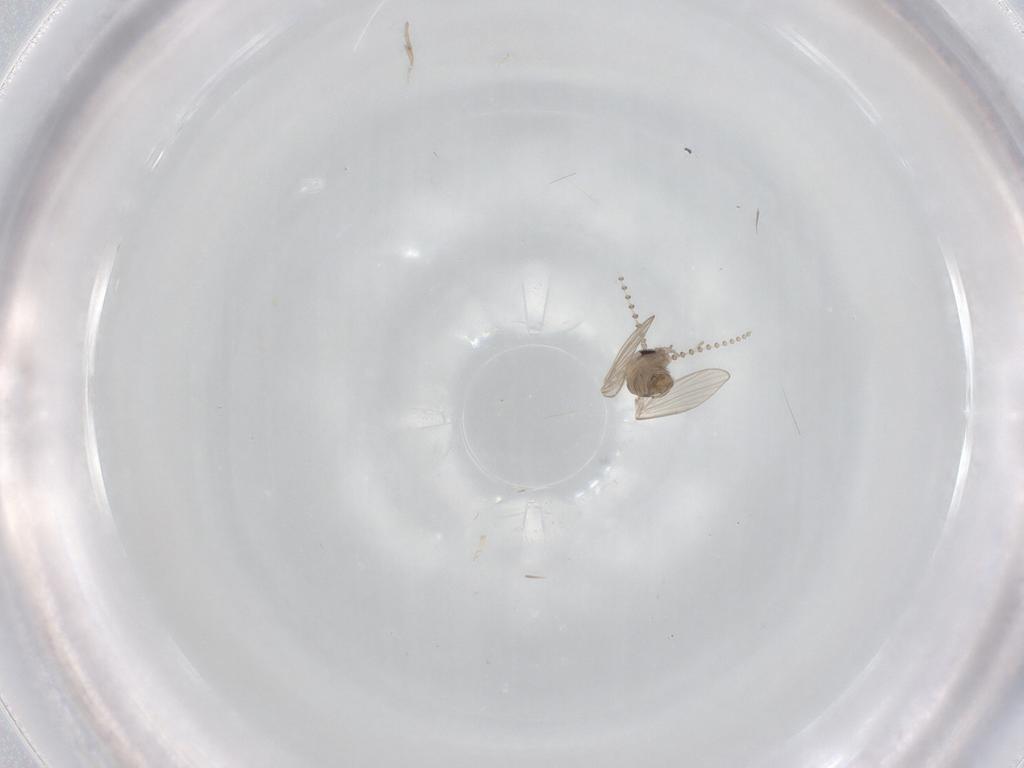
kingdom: Animalia
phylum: Arthropoda
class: Insecta
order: Diptera
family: Psychodidae
